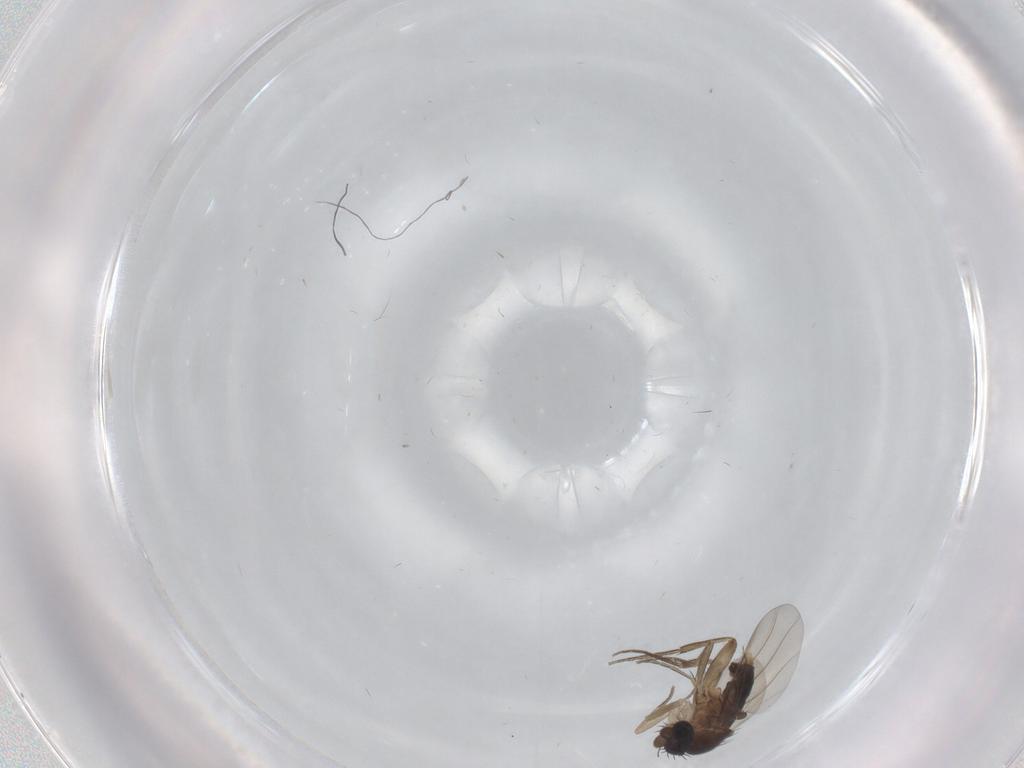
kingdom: Animalia
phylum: Arthropoda
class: Insecta
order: Diptera
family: Phoridae
